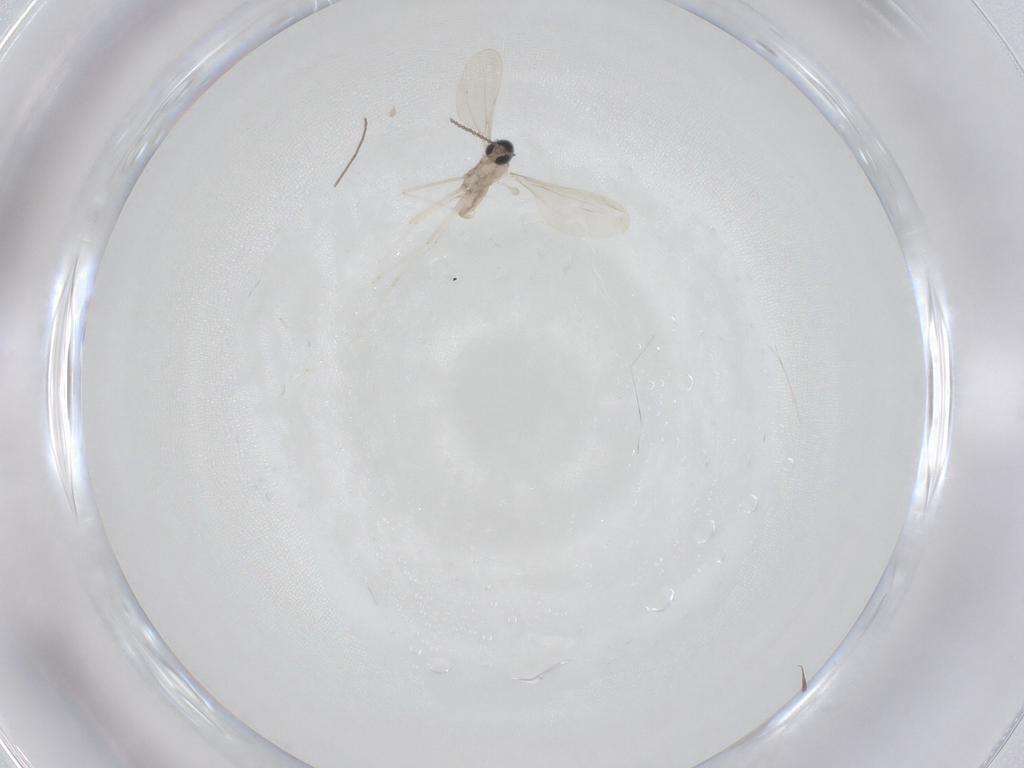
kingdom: Animalia
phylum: Arthropoda
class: Insecta
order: Diptera
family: Chironomidae
